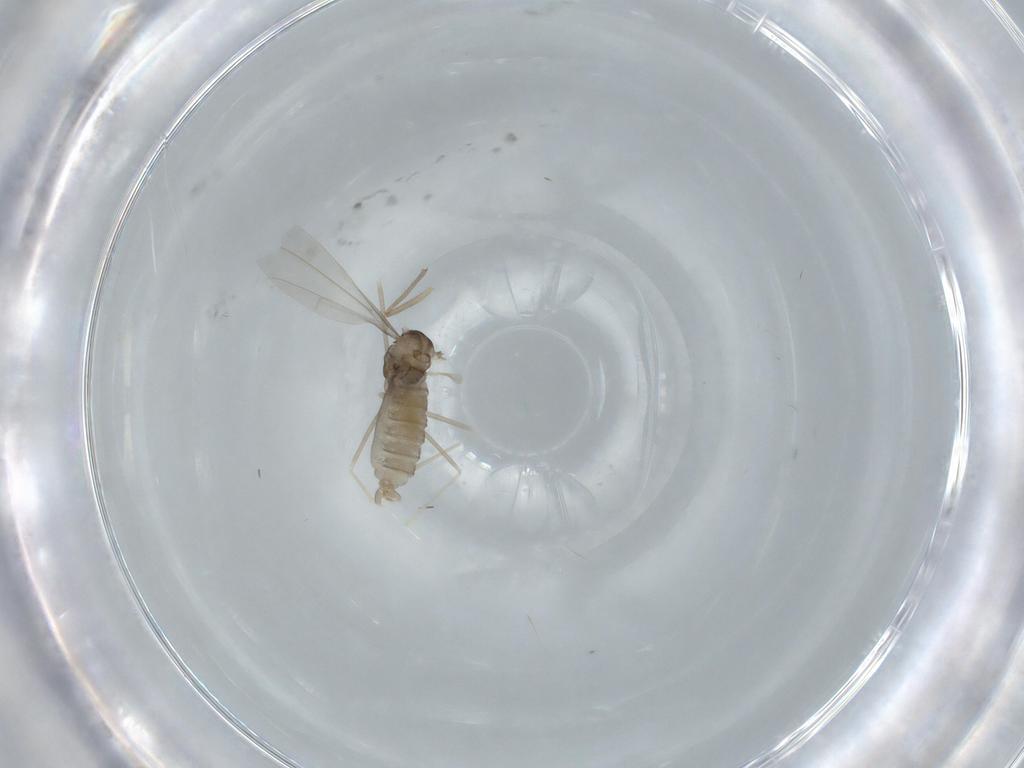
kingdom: Animalia
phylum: Arthropoda
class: Insecta
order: Diptera
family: Cecidomyiidae
